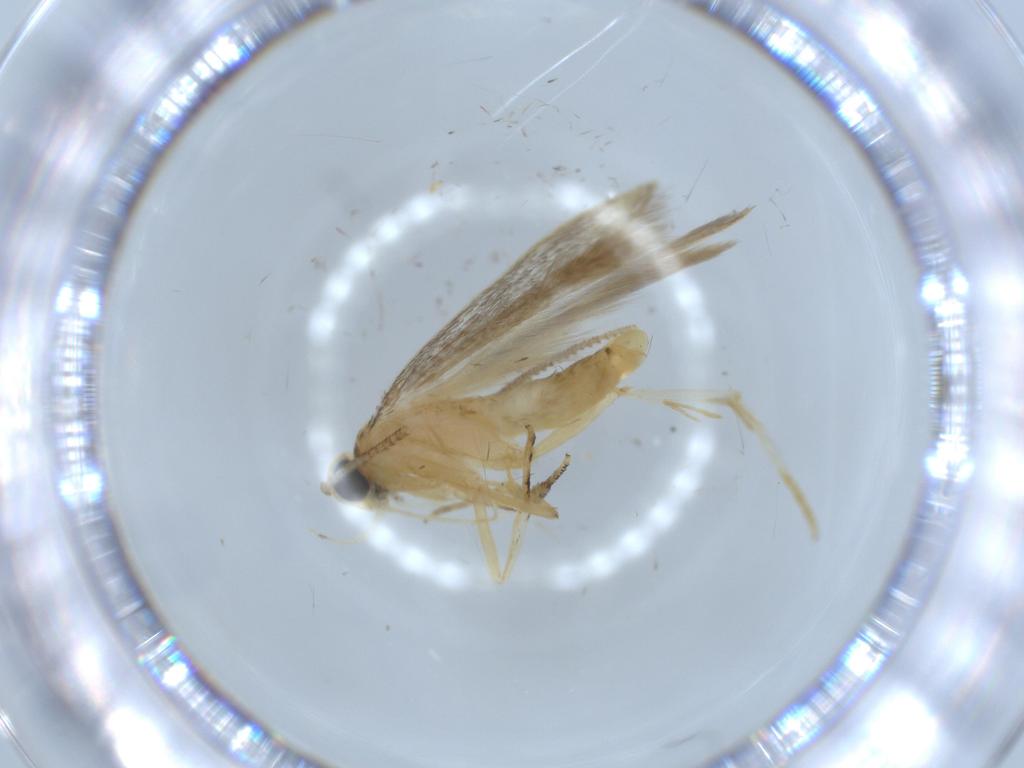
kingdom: Animalia
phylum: Arthropoda
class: Insecta
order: Lepidoptera
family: Autostichidae
